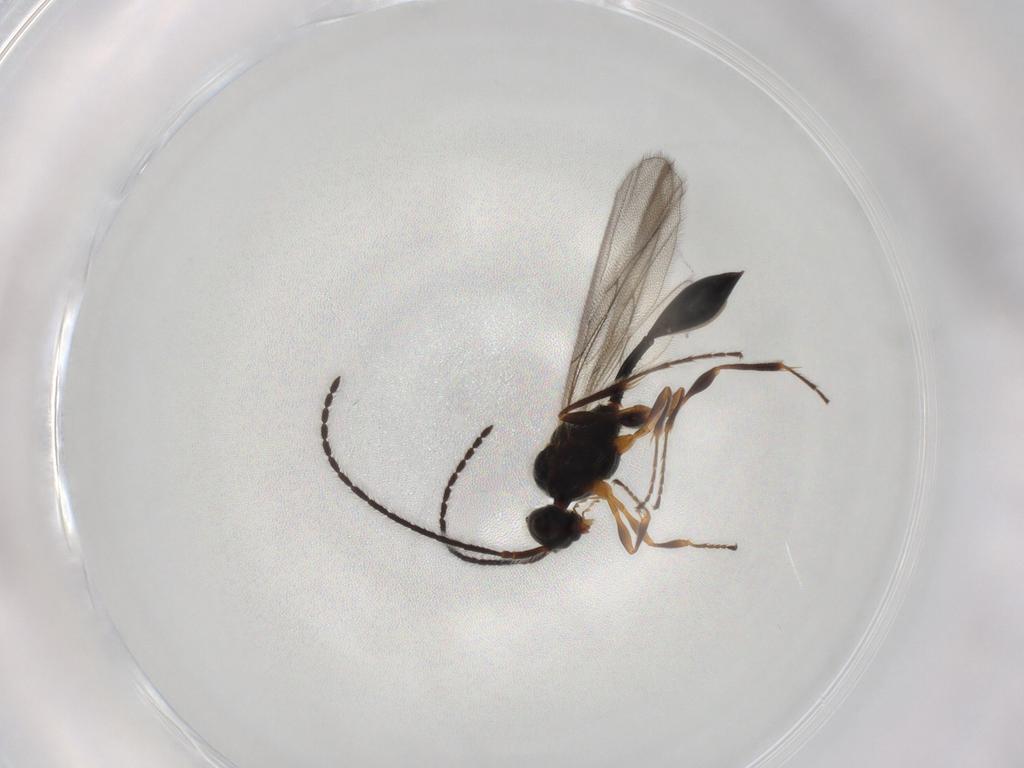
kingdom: Animalia
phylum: Arthropoda
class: Insecta
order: Hymenoptera
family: Diapriidae
